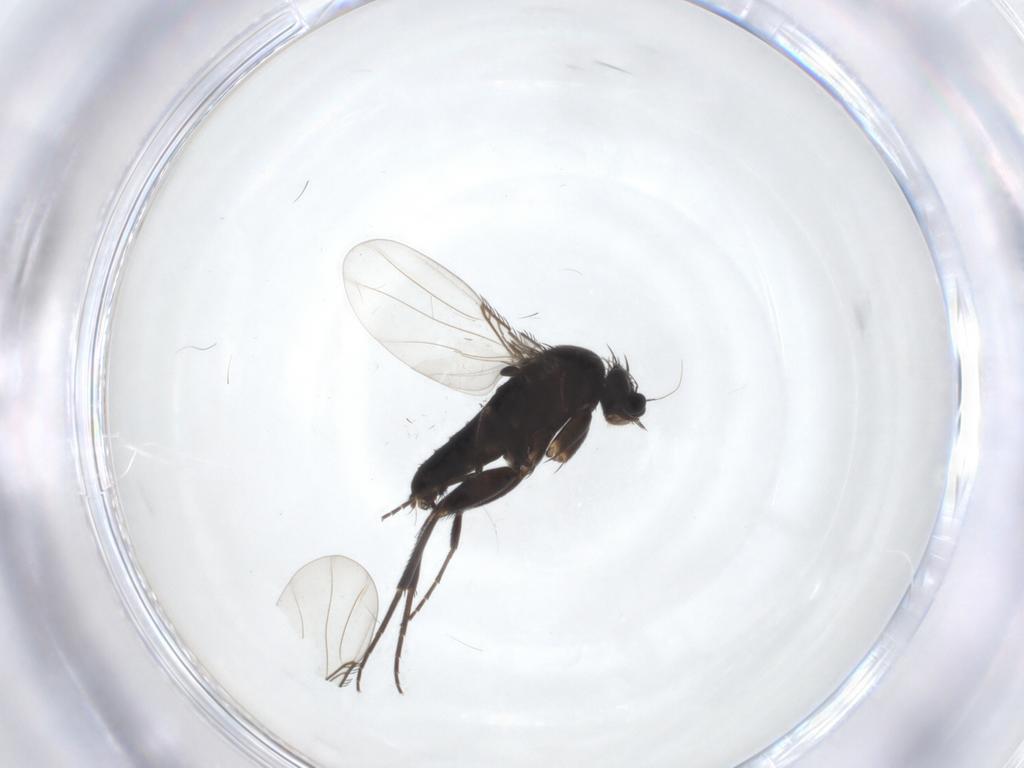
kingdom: Animalia
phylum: Arthropoda
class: Insecta
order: Diptera
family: Phoridae
